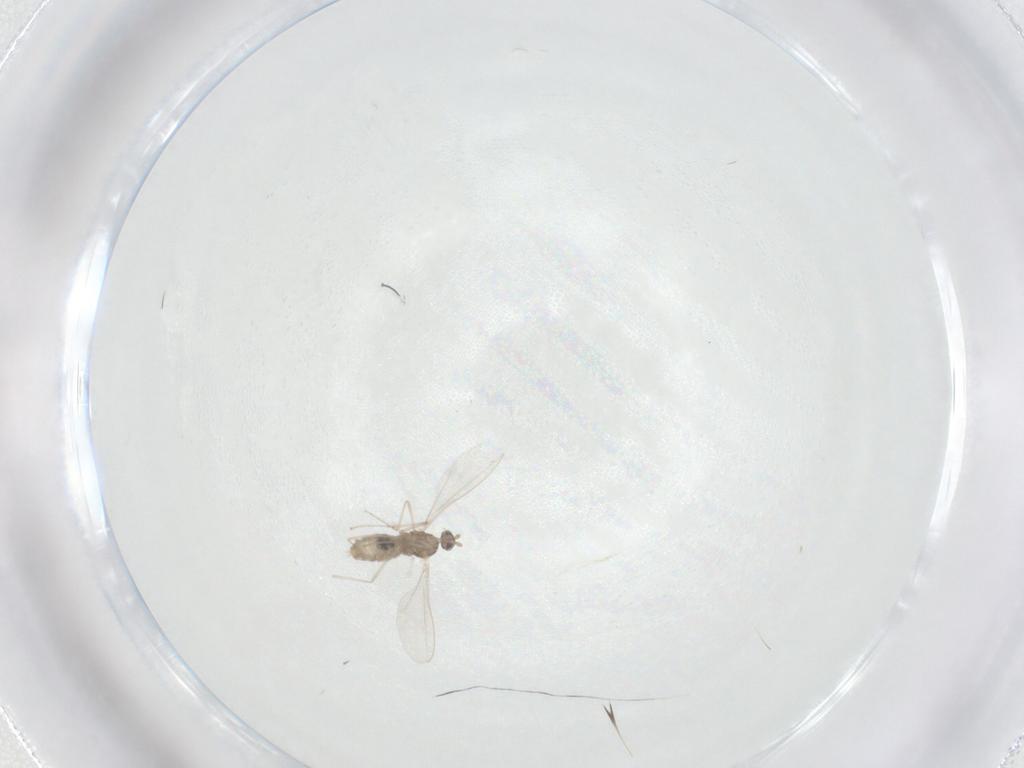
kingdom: Animalia
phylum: Arthropoda
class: Insecta
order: Diptera
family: Cecidomyiidae
